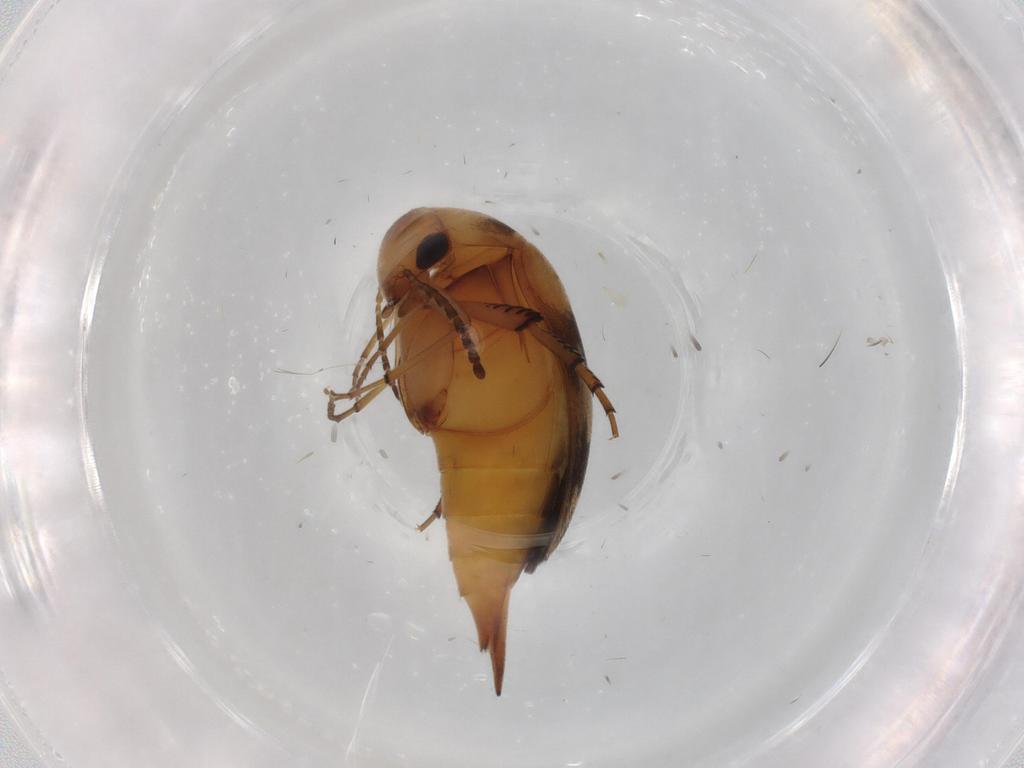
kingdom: Animalia
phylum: Arthropoda
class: Insecta
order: Coleoptera
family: Mordellidae
